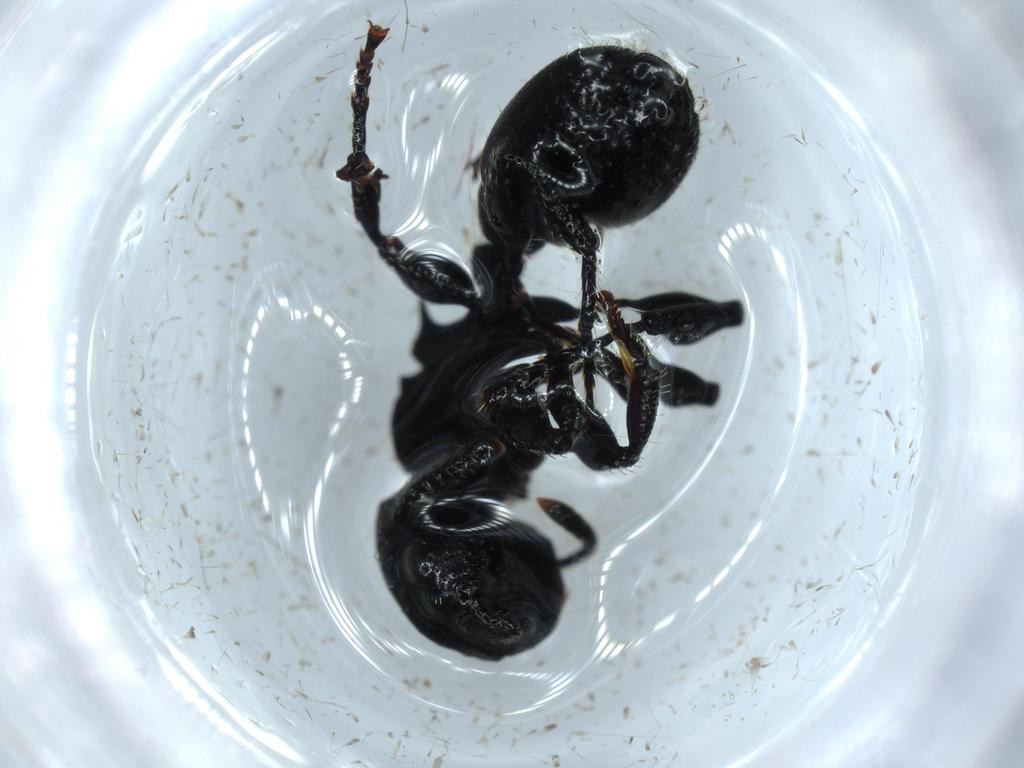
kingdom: Animalia
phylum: Arthropoda
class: Insecta
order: Hymenoptera
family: Formicidae
